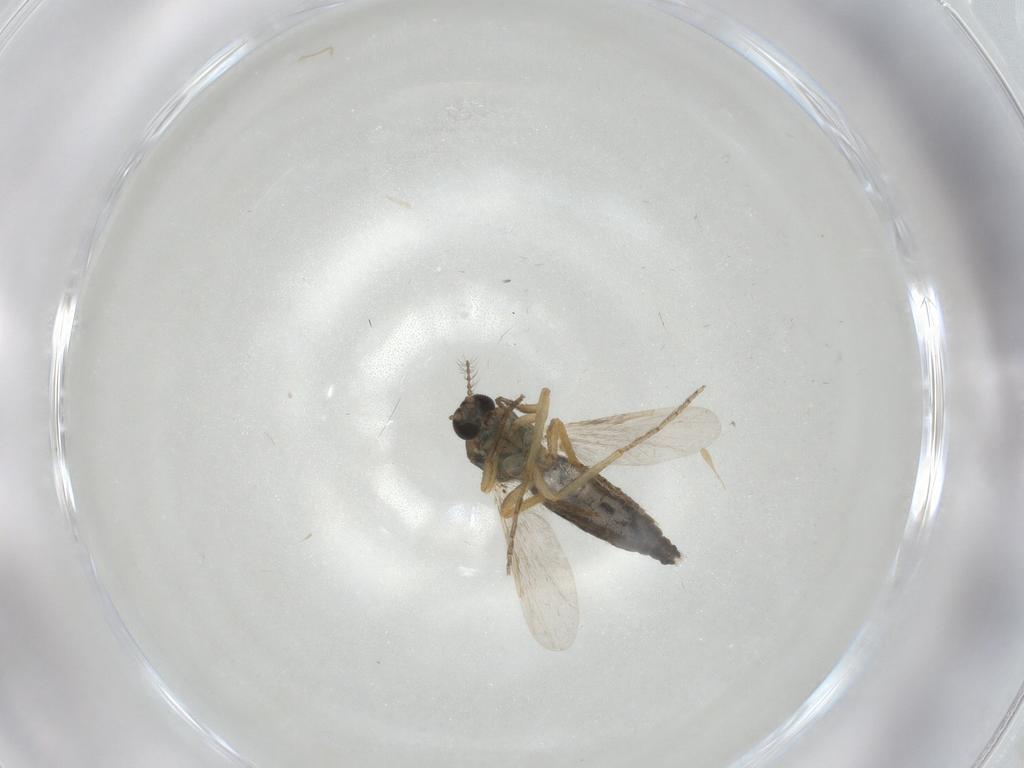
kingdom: Animalia
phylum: Arthropoda
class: Insecta
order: Diptera
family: Ceratopogonidae
